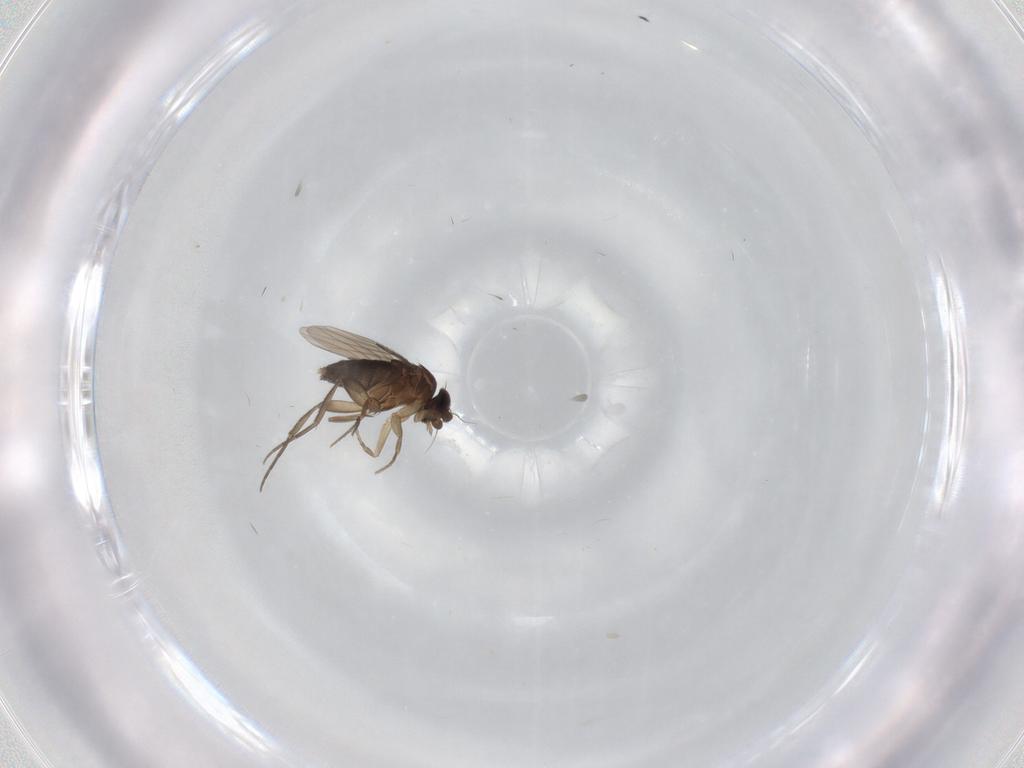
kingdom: Animalia
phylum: Arthropoda
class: Insecta
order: Diptera
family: Phoridae
